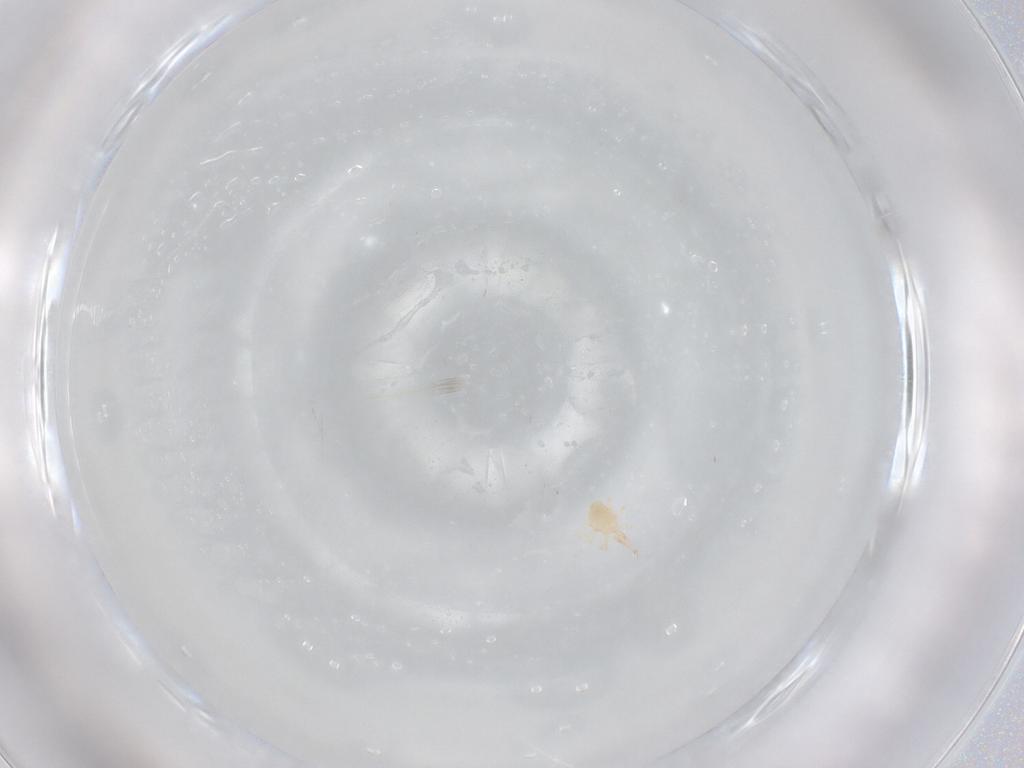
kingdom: Animalia
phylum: Arthropoda
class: Arachnida
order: Trombidiformes
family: Cunaxidae
